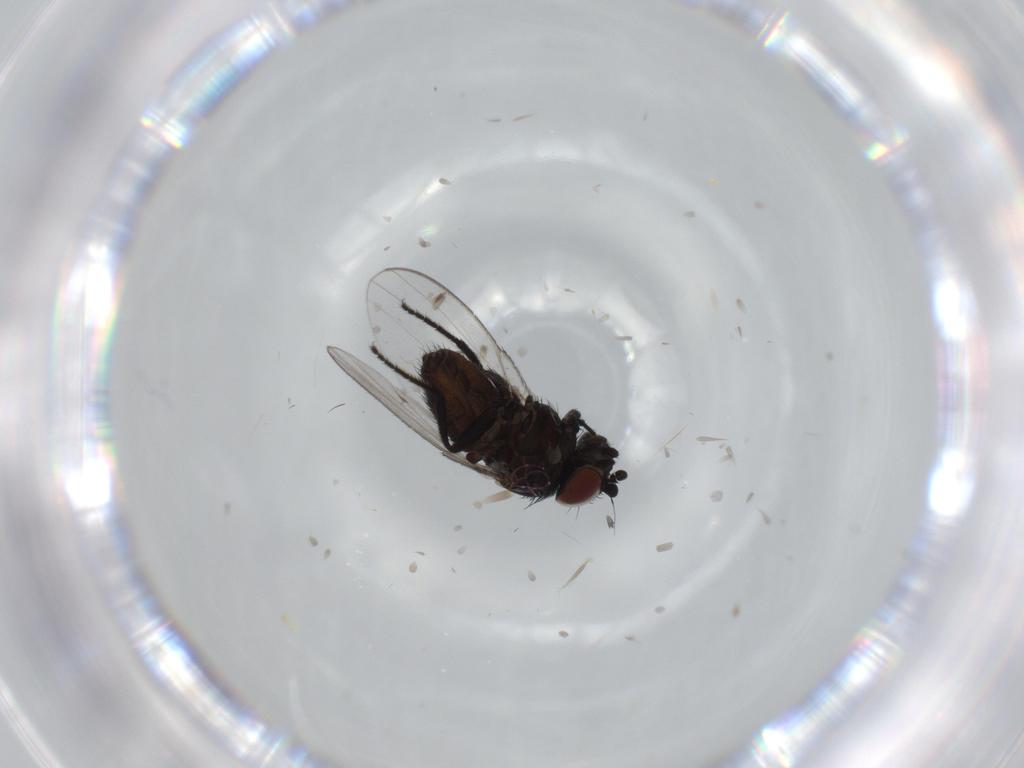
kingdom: Animalia
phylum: Arthropoda
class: Insecta
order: Diptera
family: Milichiidae
